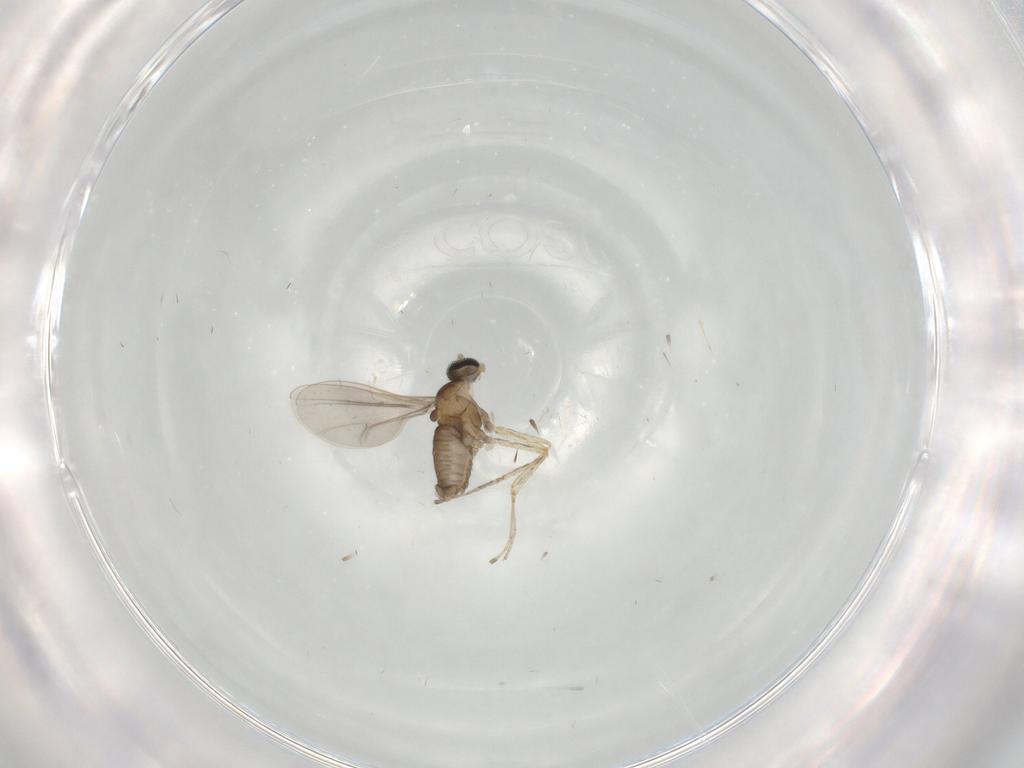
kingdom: Animalia
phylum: Arthropoda
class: Insecta
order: Diptera
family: Cecidomyiidae
